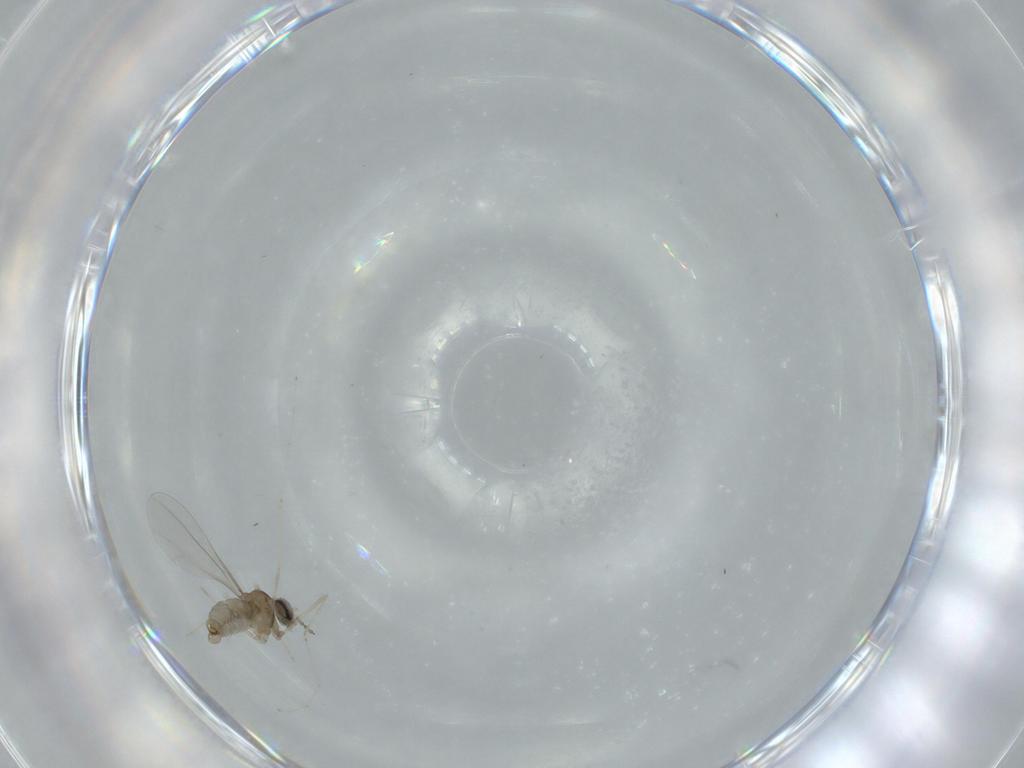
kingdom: Animalia
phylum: Arthropoda
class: Insecta
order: Diptera
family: Cecidomyiidae
